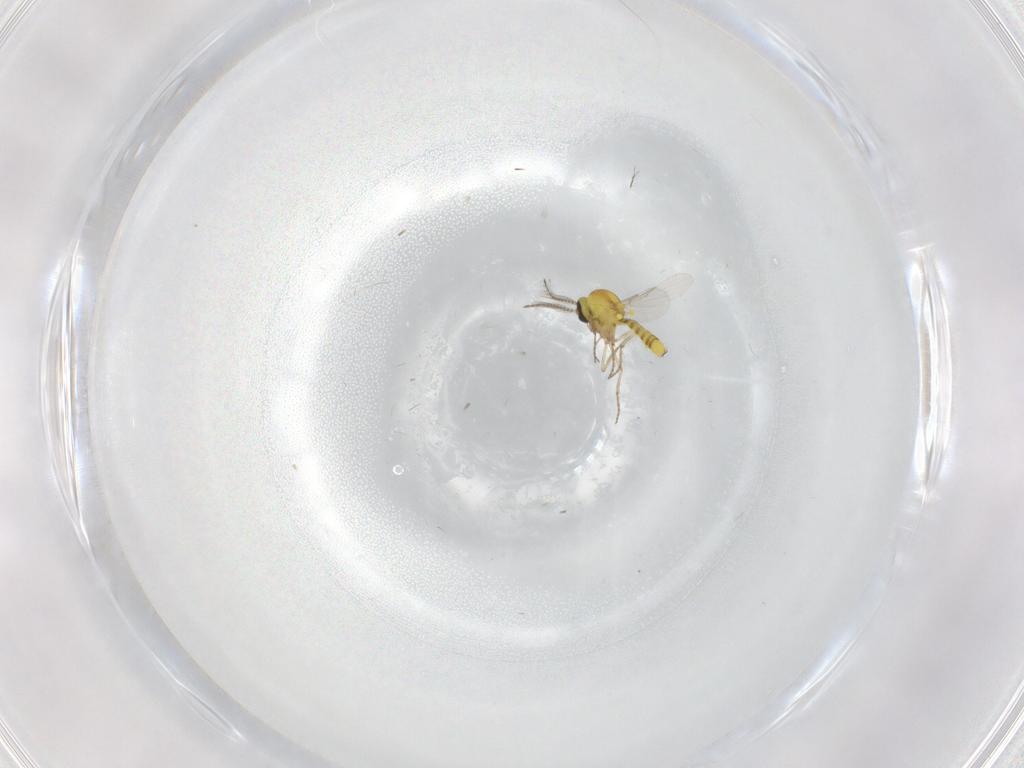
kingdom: Animalia
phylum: Arthropoda
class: Insecta
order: Diptera
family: Ceratopogonidae
